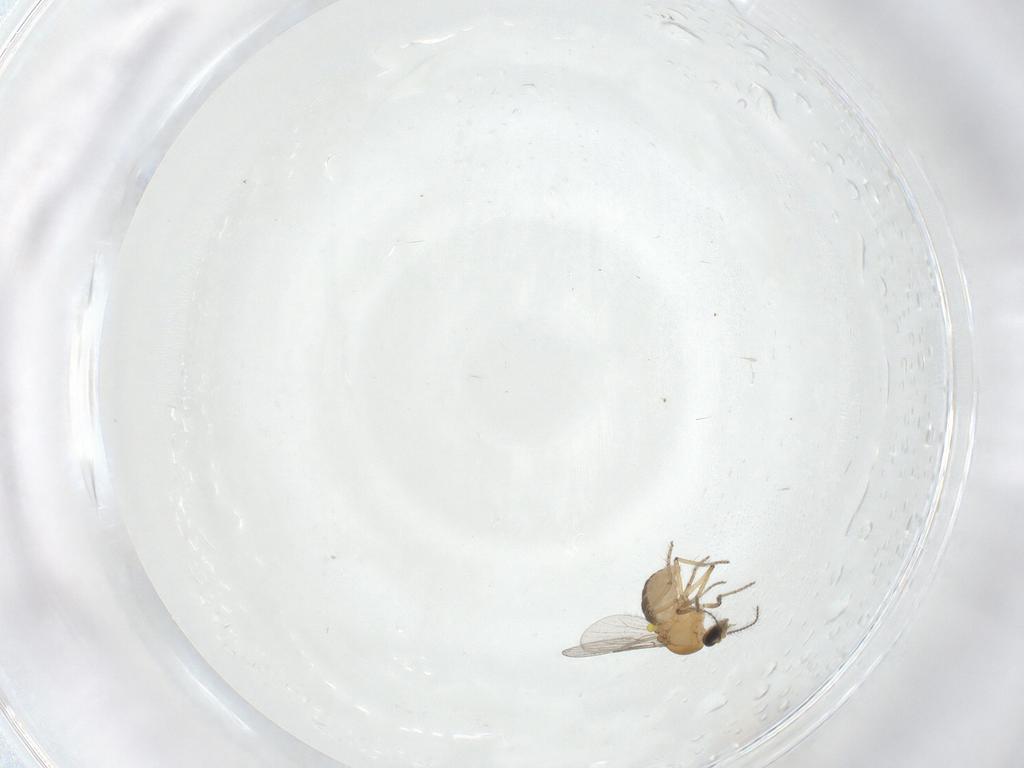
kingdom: Animalia
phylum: Arthropoda
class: Insecta
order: Diptera
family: Ceratopogonidae
